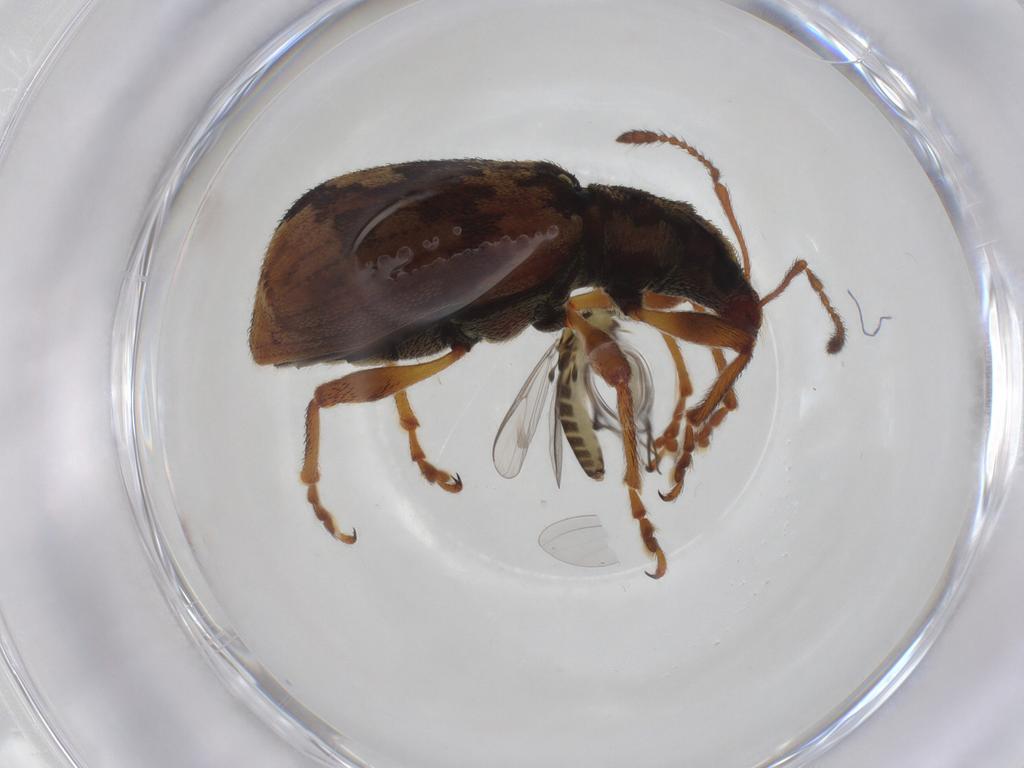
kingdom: Animalia
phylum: Arthropoda
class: Insecta
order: Coleoptera
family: Curculionidae
